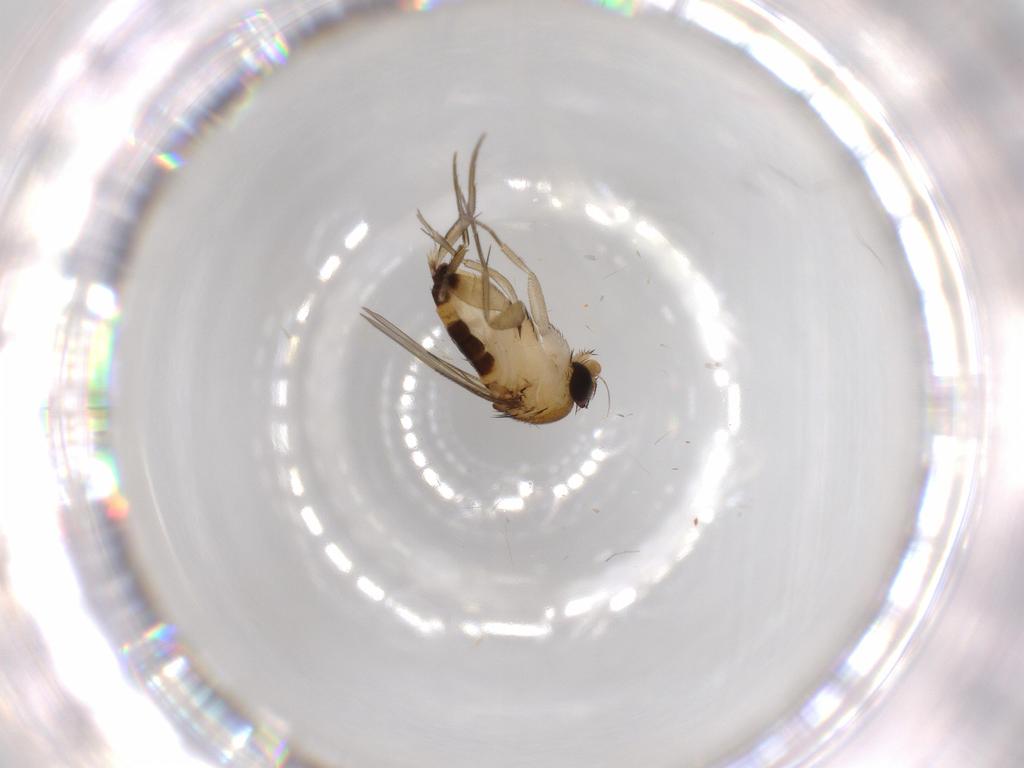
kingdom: Animalia
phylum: Arthropoda
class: Insecta
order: Diptera
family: Phoridae
